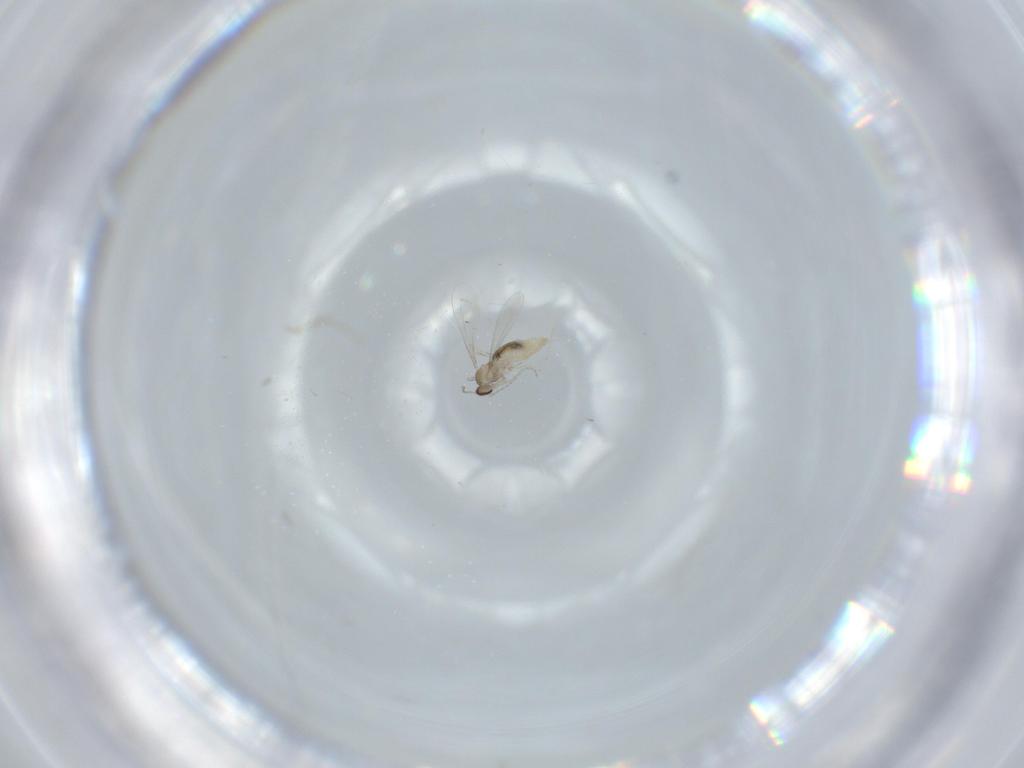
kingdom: Animalia
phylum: Arthropoda
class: Insecta
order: Diptera
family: Cecidomyiidae
